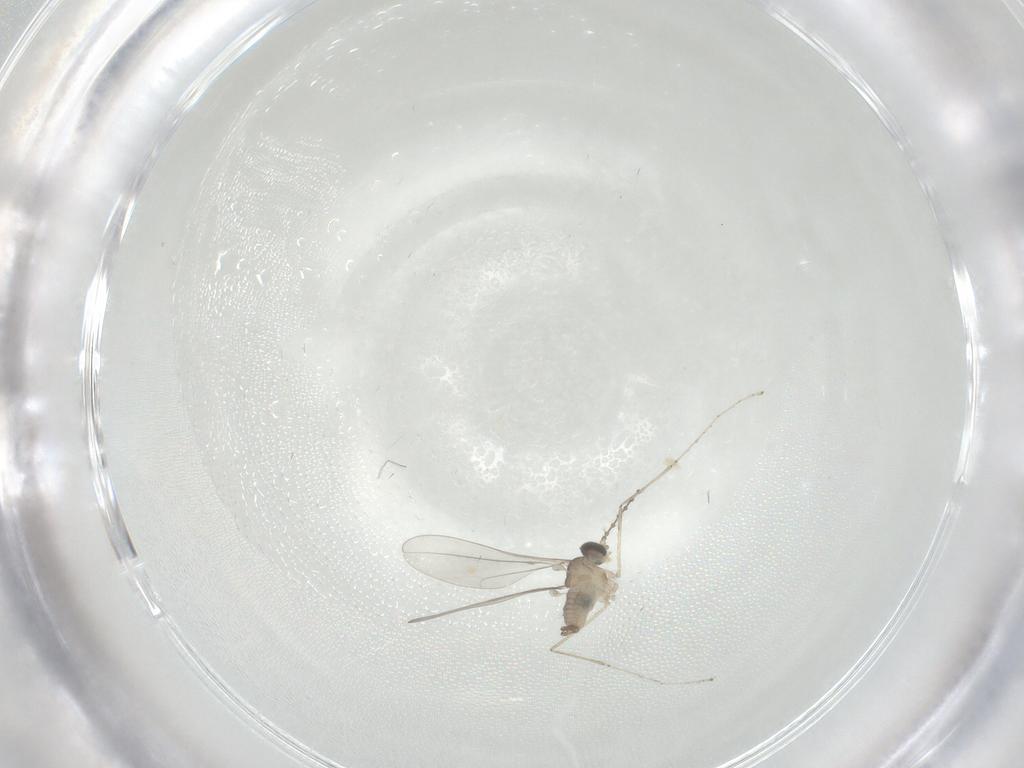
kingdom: Animalia
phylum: Arthropoda
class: Insecta
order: Diptera
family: Cecidomyiidae
